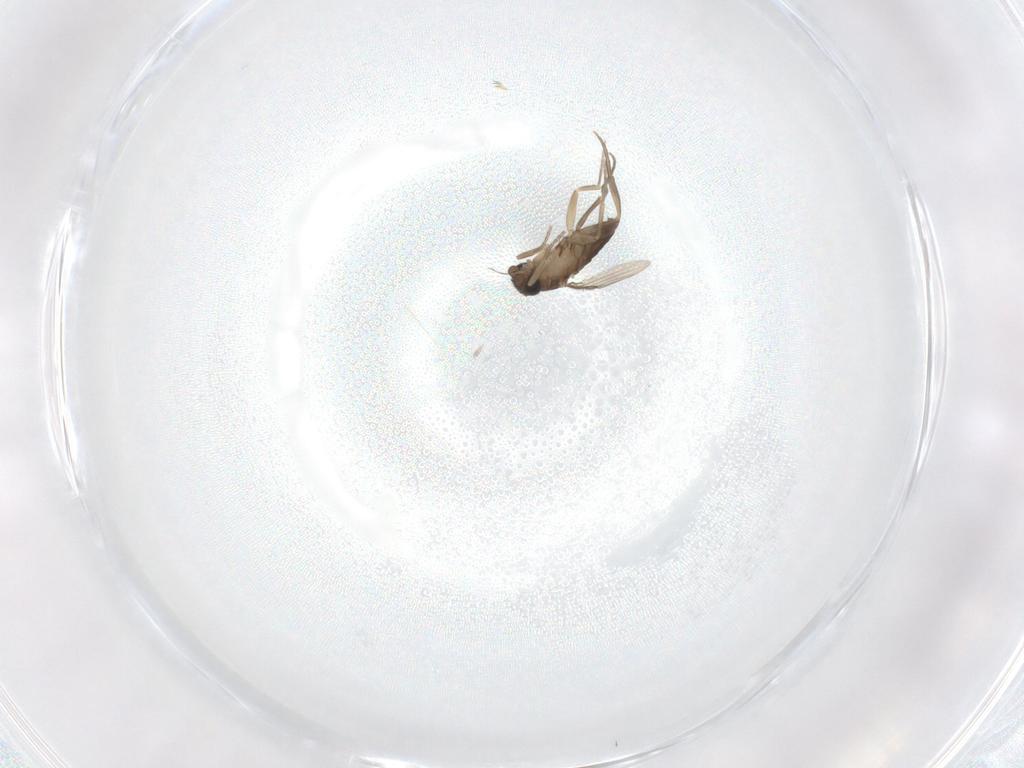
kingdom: Animalia
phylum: Arthropoda
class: Insecta
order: Diptera
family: Phoridae
